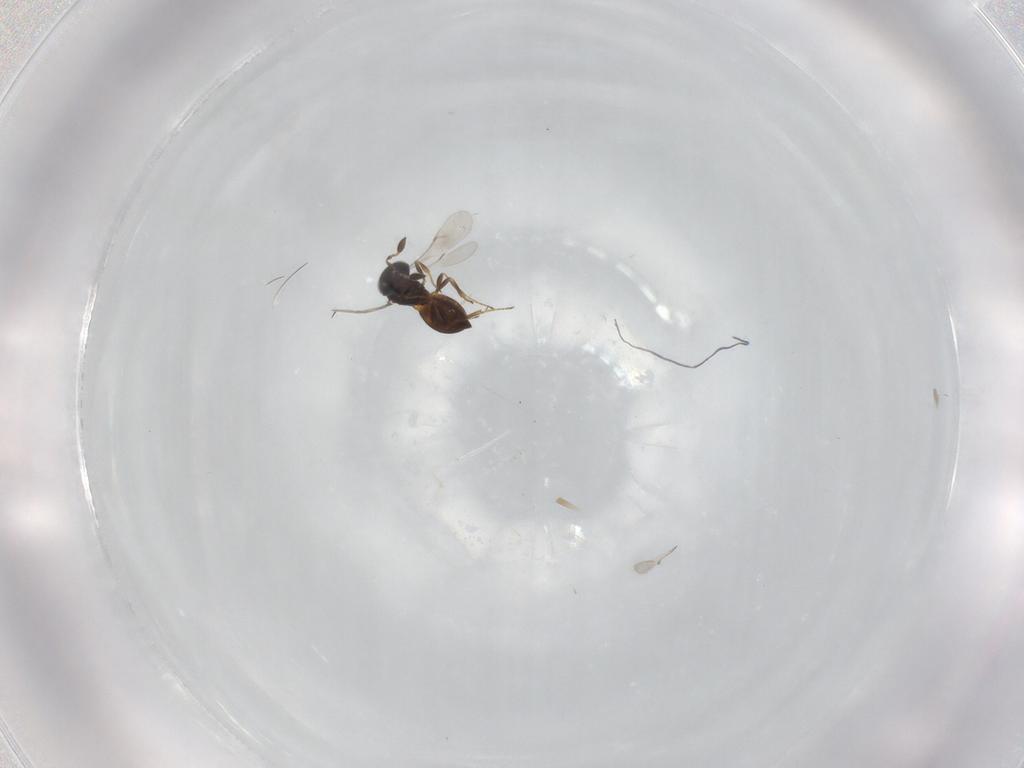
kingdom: Animalia
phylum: Arthropoda
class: Insecta
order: Hymenoptera
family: Scelionidae
